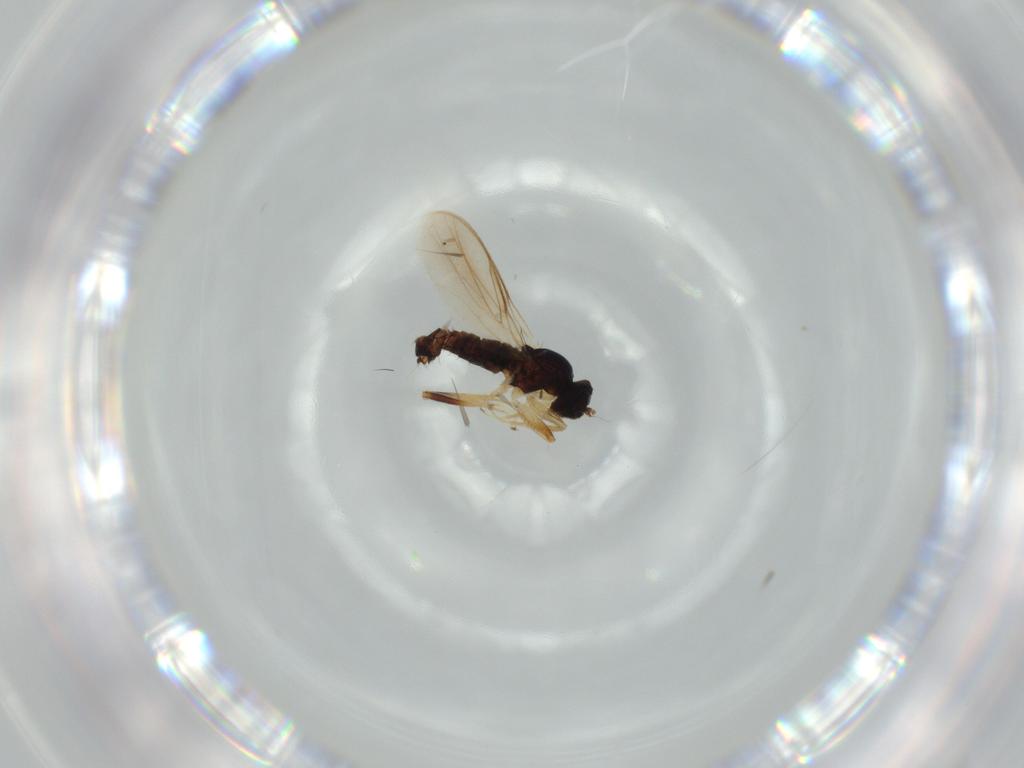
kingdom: Animalia
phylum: Arthropoda
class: Insecta
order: Diptera
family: Hybotidae
